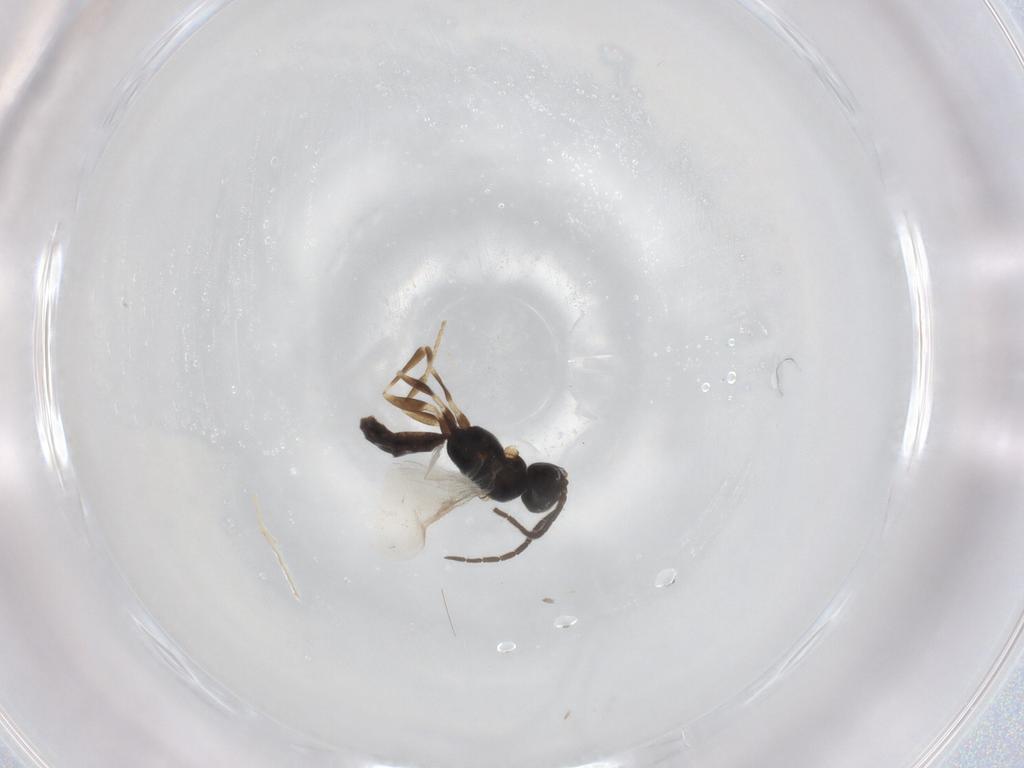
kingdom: Animalia
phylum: Arthropoda
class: Insecta
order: Hymenoptera
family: Dryinidae
